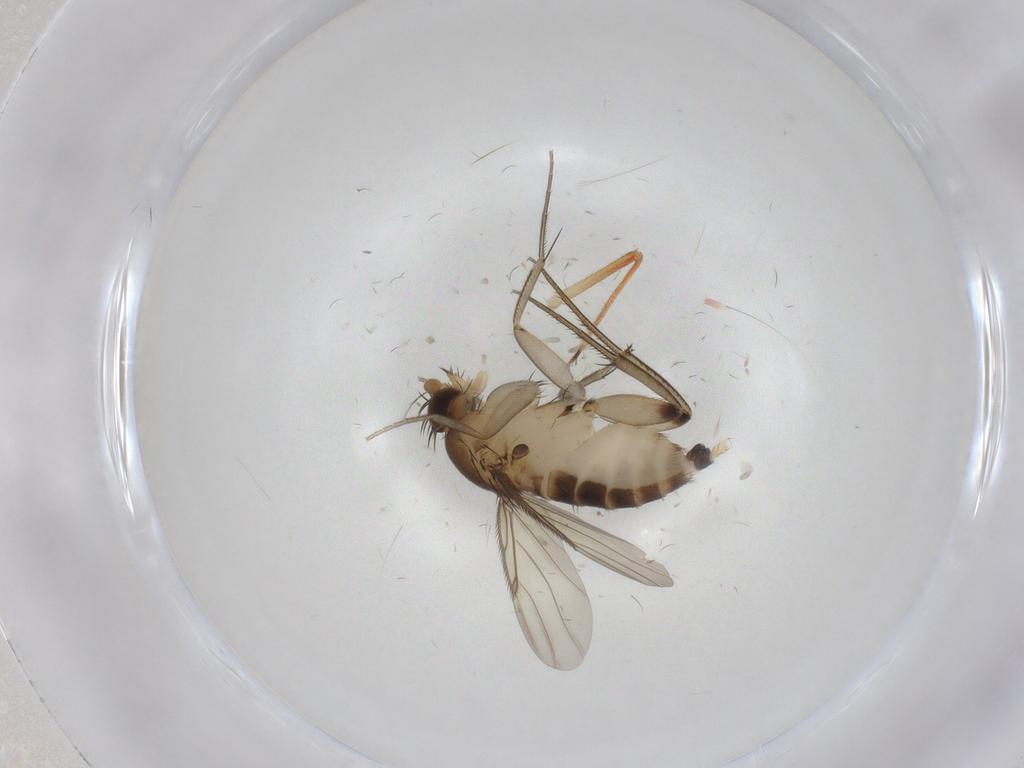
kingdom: Animalia
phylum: Arthropoda
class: Insecta
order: Diptera
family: Phoridae
